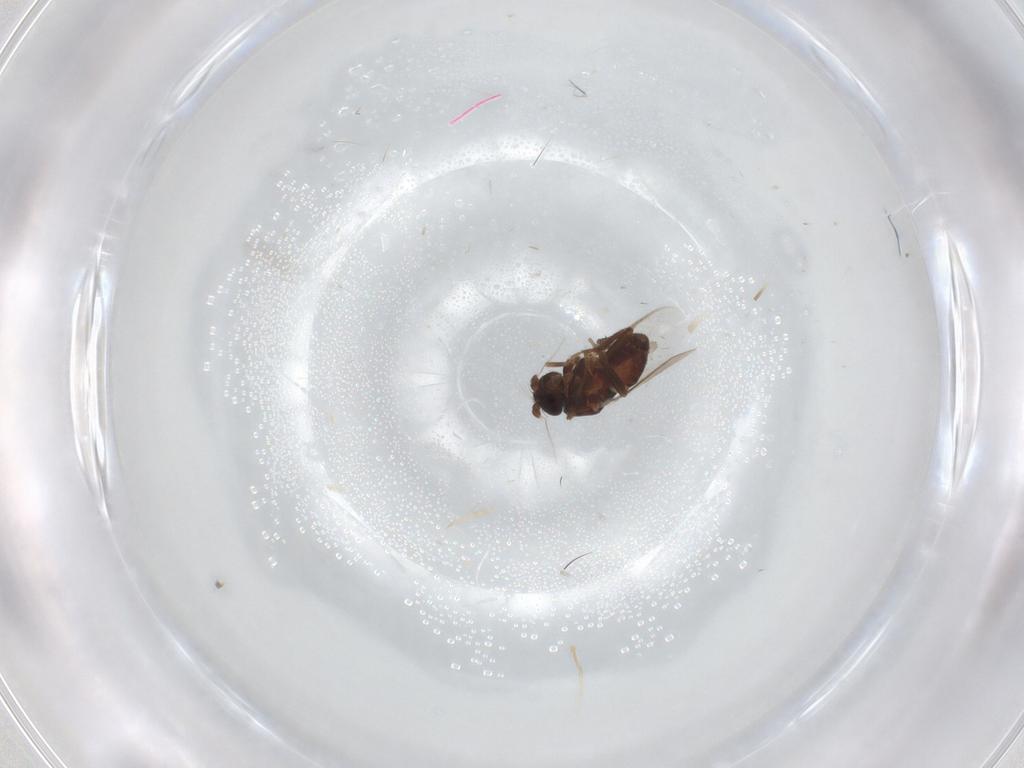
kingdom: Animalia
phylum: Arthropoda
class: Insecta
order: Diptera
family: Sphaeroceridae
